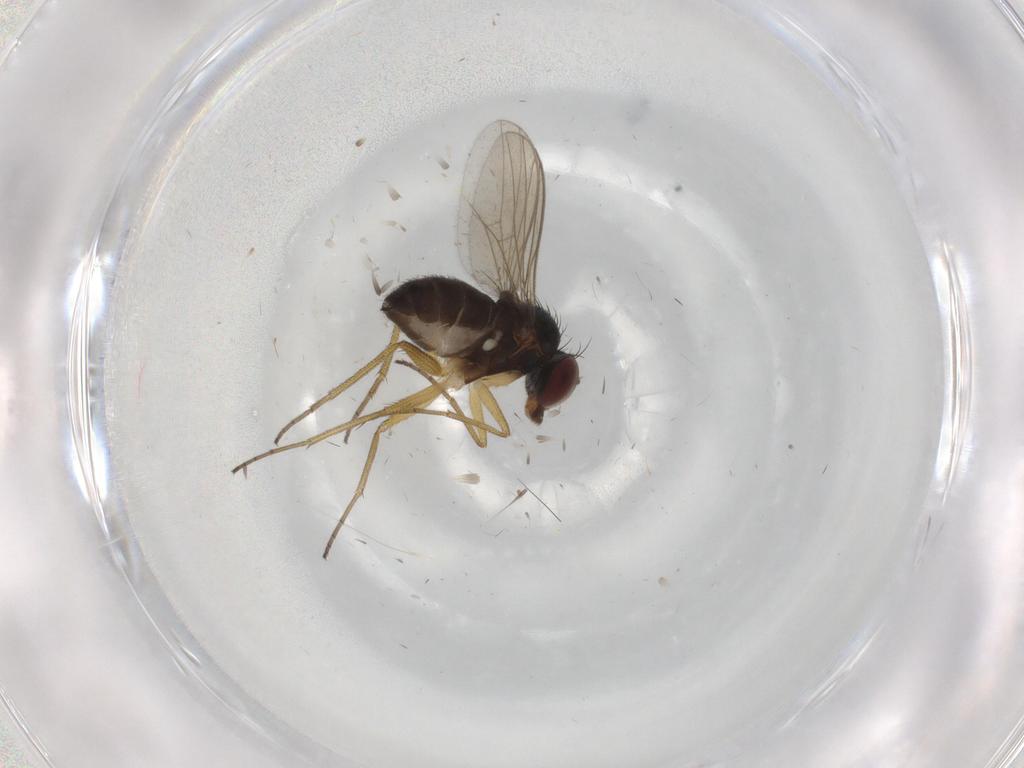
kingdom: Animalia
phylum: Arthropoda
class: Insecta
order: Diptera
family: Dolichopodidae
